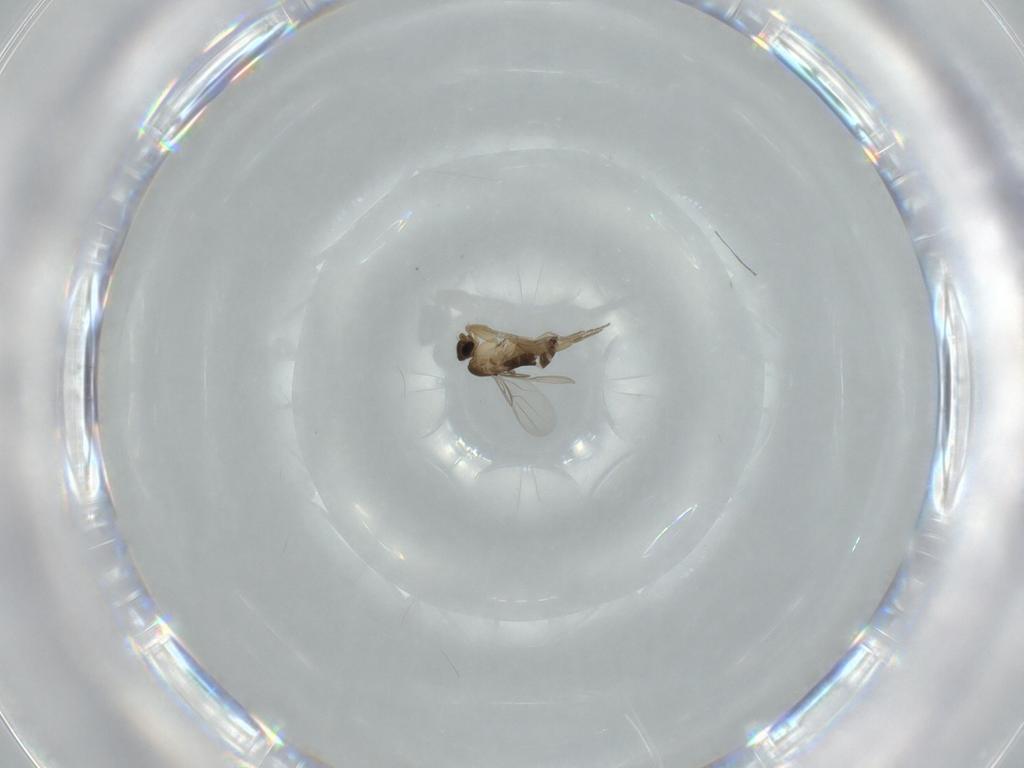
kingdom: Animalia
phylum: Arthropoda
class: Insecta
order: Diptera
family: Phoridae
